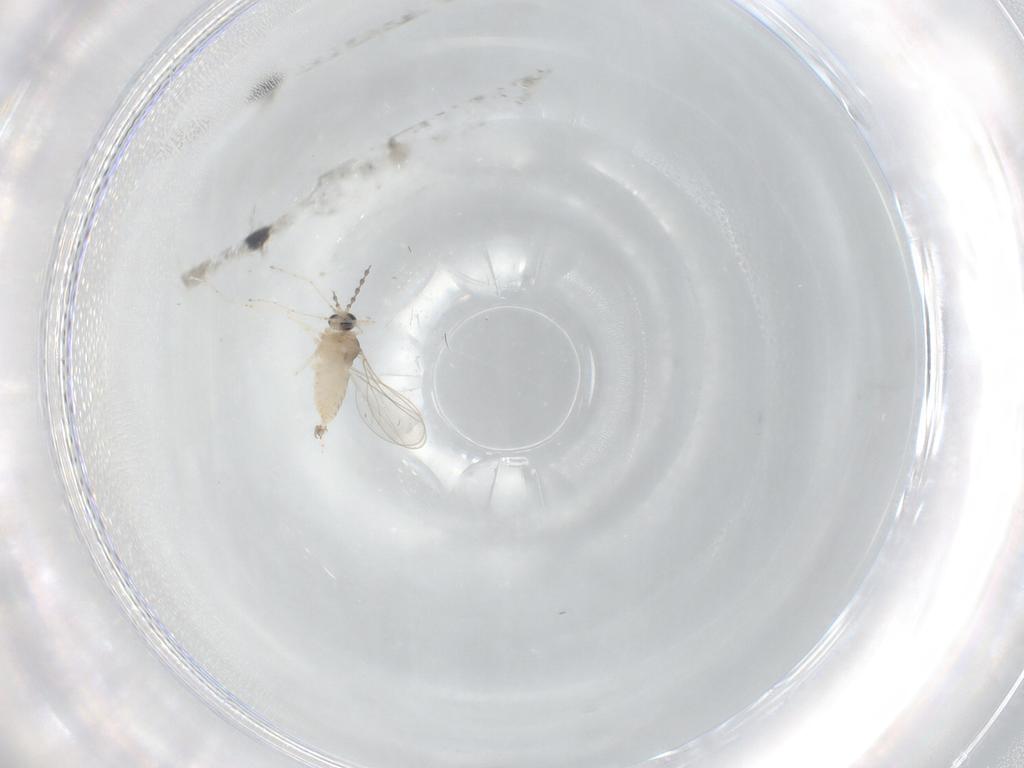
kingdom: Animalia
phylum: Arthropoda
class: Insecta
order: Diptera
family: Cecidomyiidae
